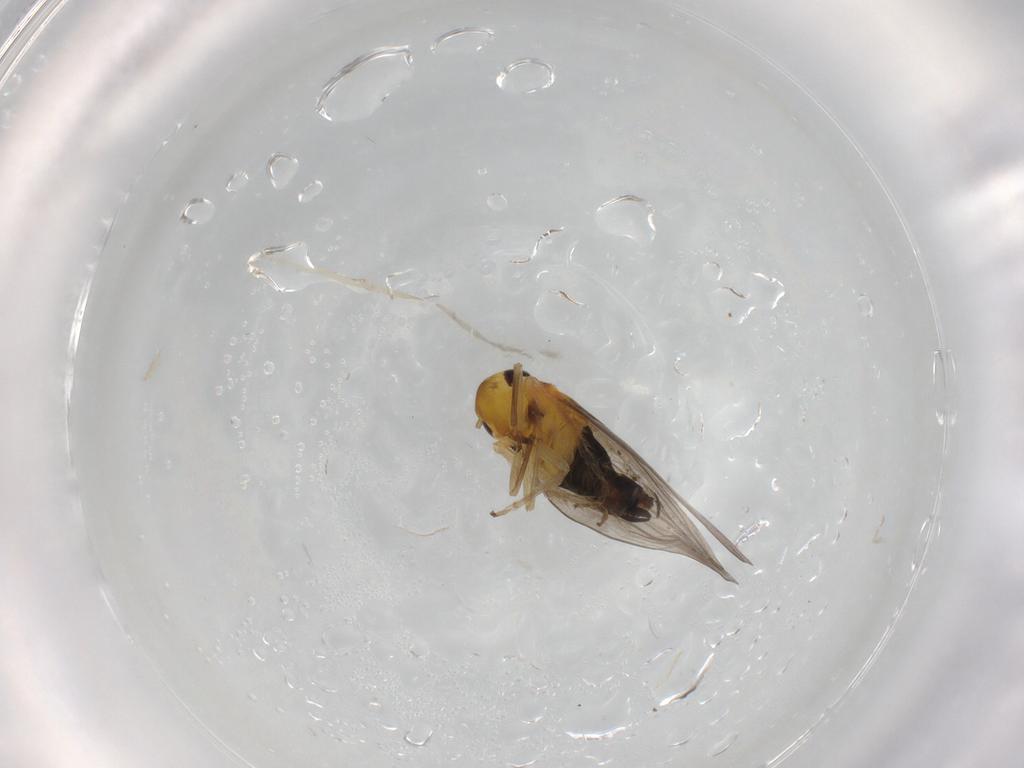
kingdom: Animalia
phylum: Arthropoda
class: Insecta
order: Hemiptera
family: Cicadellidae
